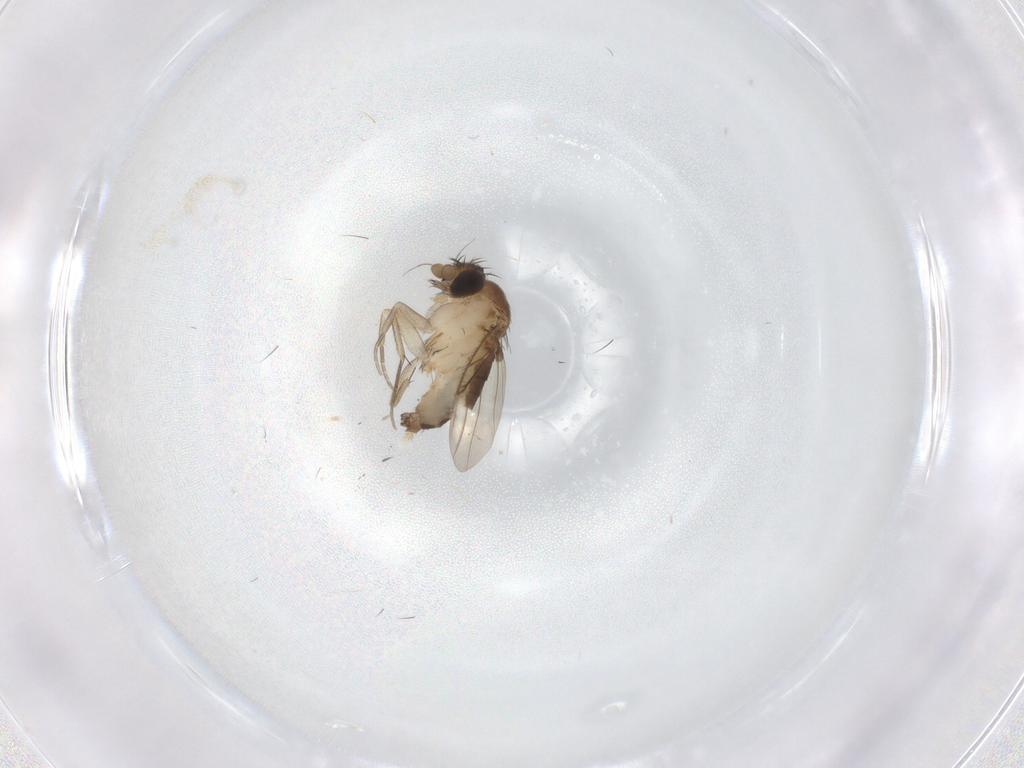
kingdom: Animalia
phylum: Arthropoda
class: Insecta
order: Diptera
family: Phoridae
